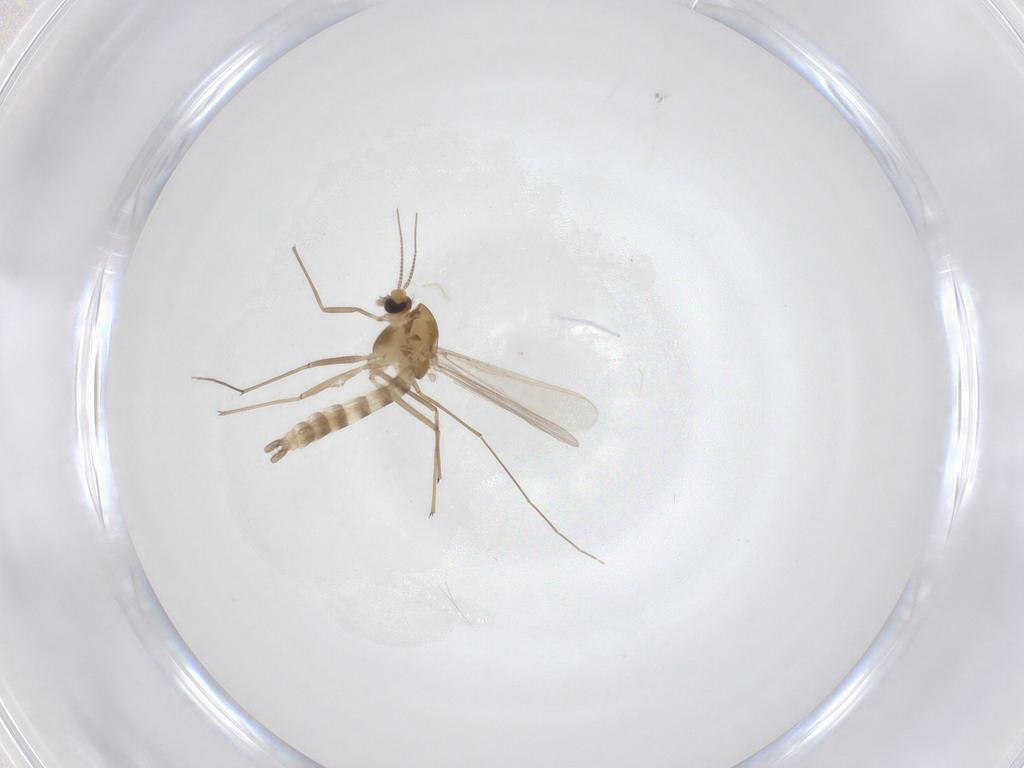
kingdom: Animalia
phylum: Arthropoda
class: Insecta
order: Diptera
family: Chironomidae
